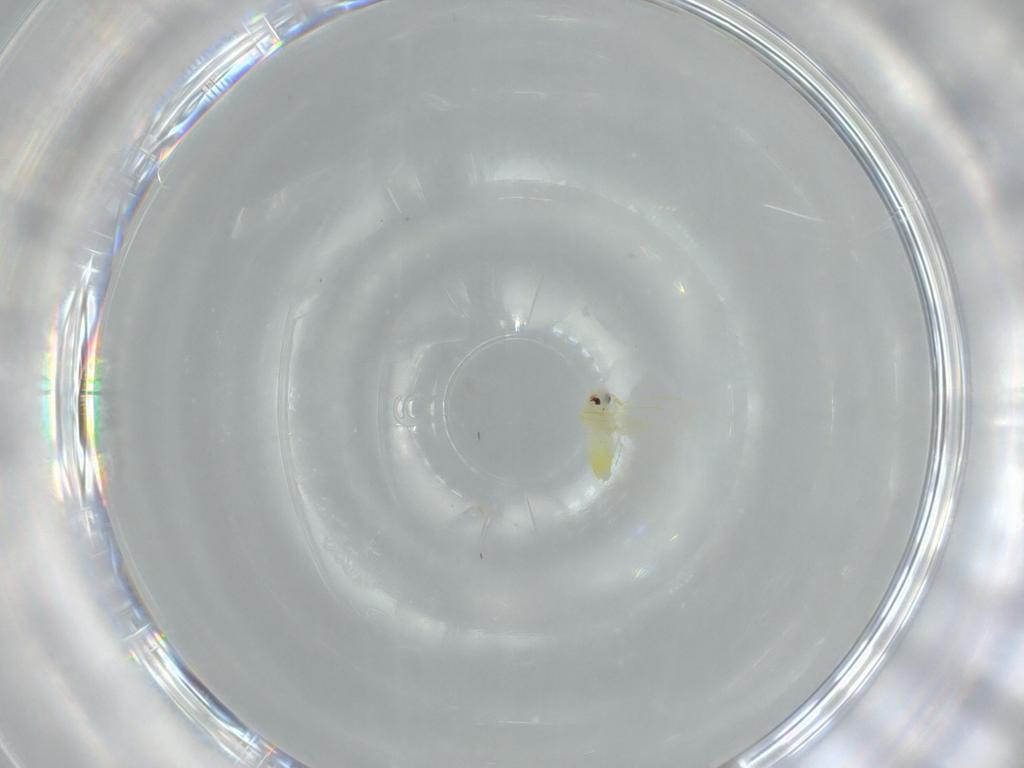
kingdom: Animalia
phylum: Arthropoda
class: Insecta
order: Hemiptera
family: Aleyrodidae
